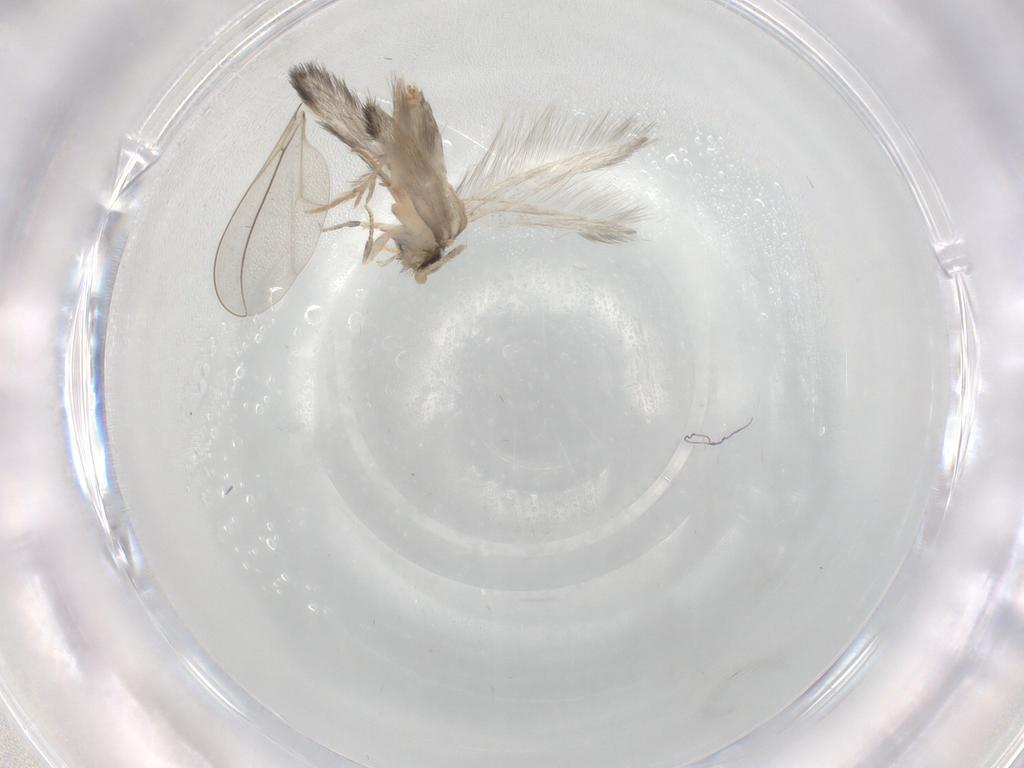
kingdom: Animalia
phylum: Arthropoda
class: Insecta
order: Trichoptera
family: Hydroptilidae
